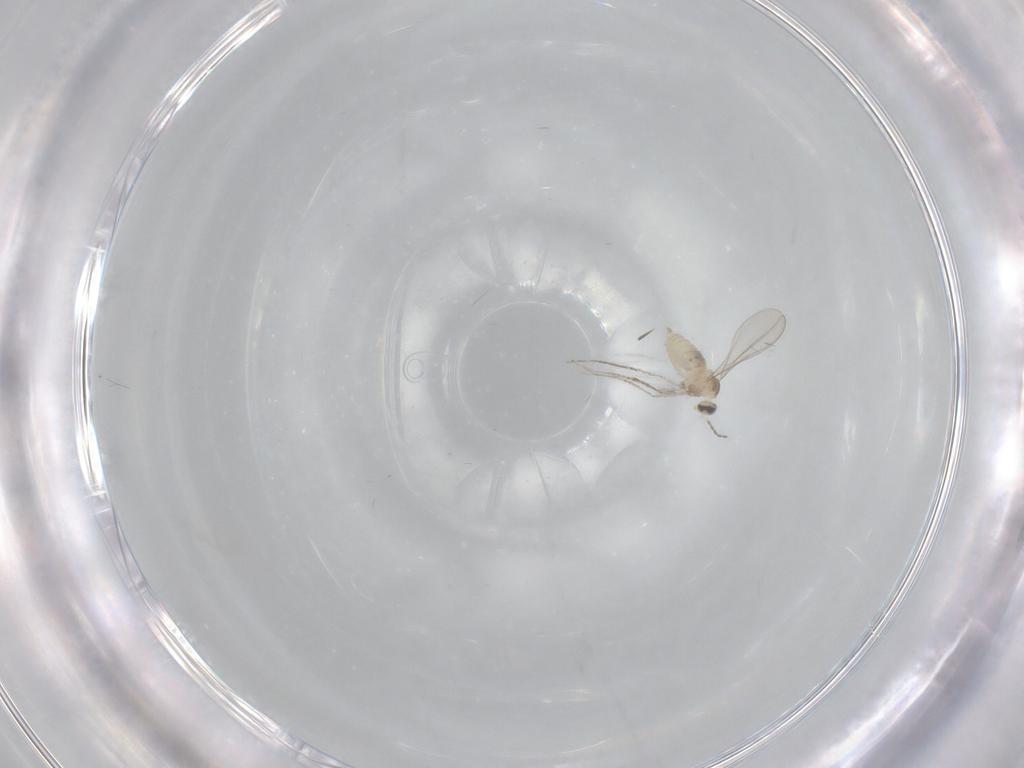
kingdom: Animalia
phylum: Arthropoda
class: Insecta
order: Diptera
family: Cecidomyiidae
